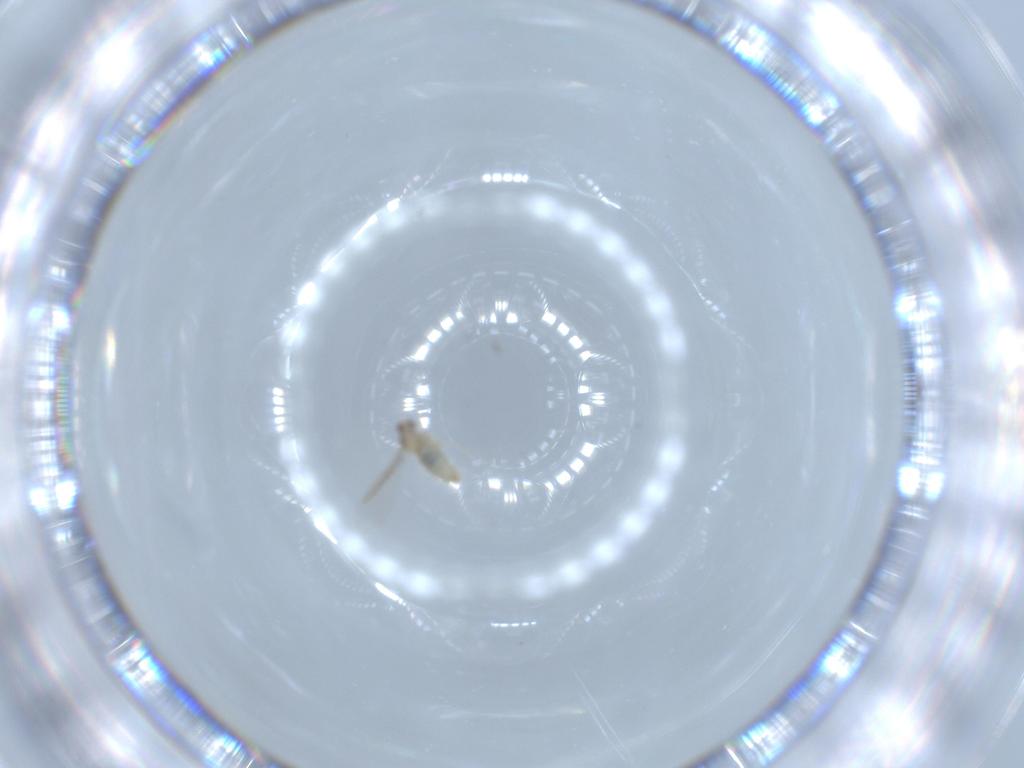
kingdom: Animalia
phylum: Arthropoda
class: Insecta
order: Diptera
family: Cecidomyiidae
